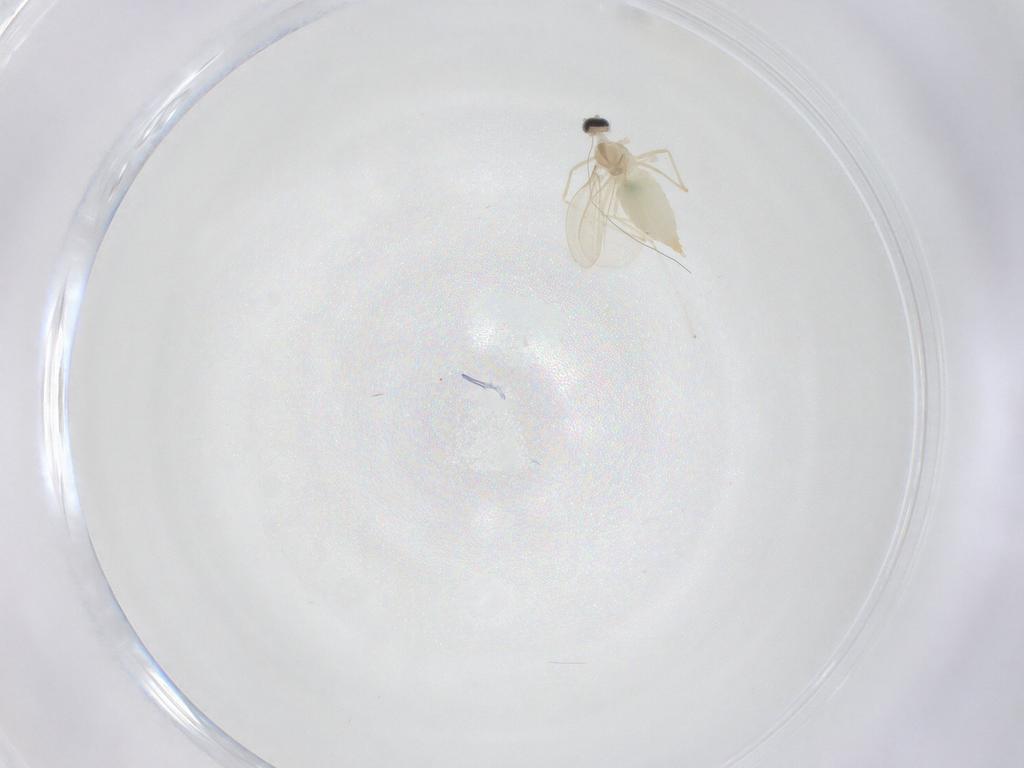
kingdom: Animalia
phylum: Arthropoda
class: Insecta
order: Diptera
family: Cecidomyiidae
